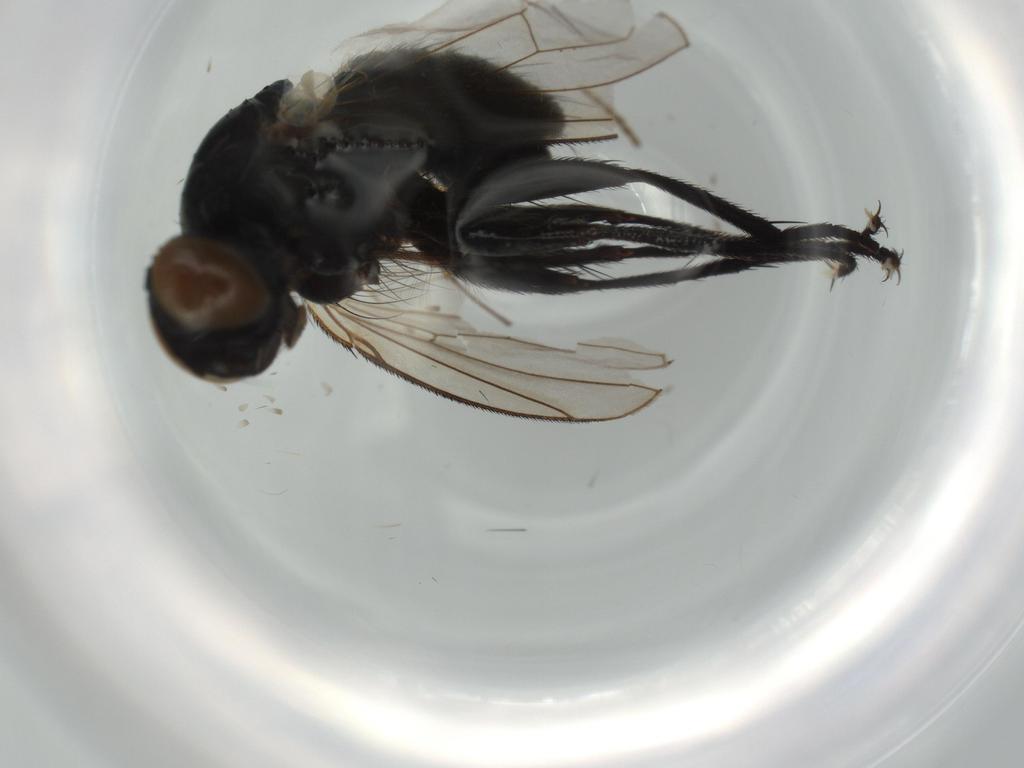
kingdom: Animalia
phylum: Arthropoda
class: Insecta
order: Diptera
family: Muscidae
